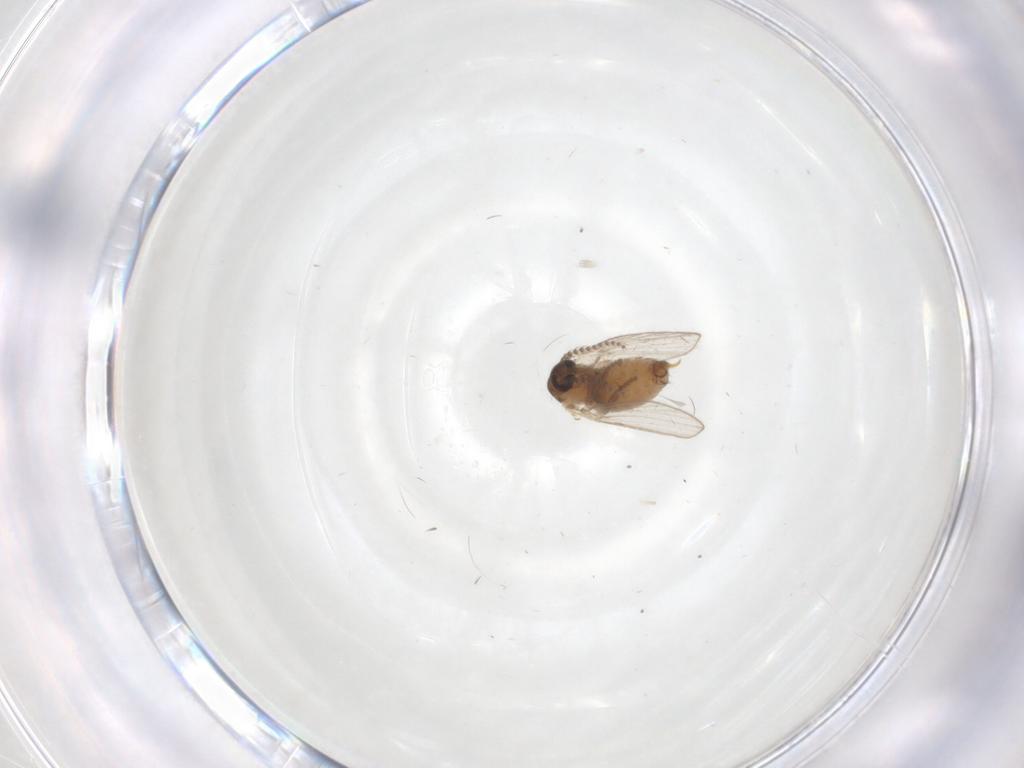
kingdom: Animalia
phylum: Arthropoda
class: Insecta
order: Diptera
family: Psychodidae
